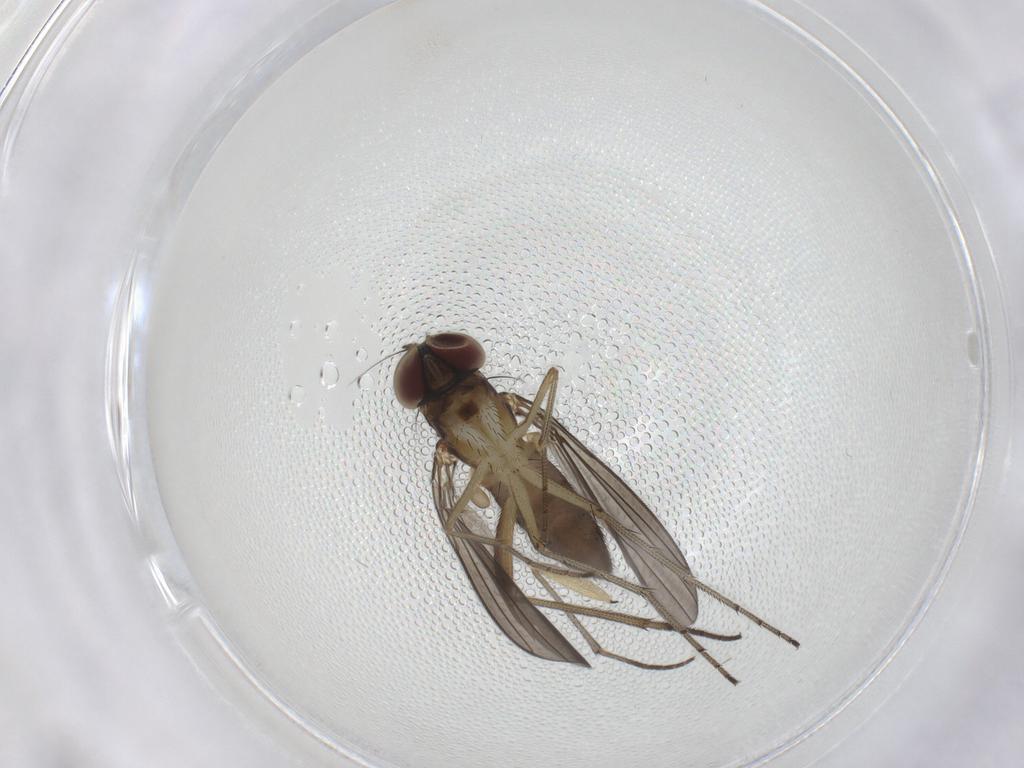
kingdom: Animalia
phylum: Arthropoda
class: Insecta
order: Diptera
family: Dolichopodidae
